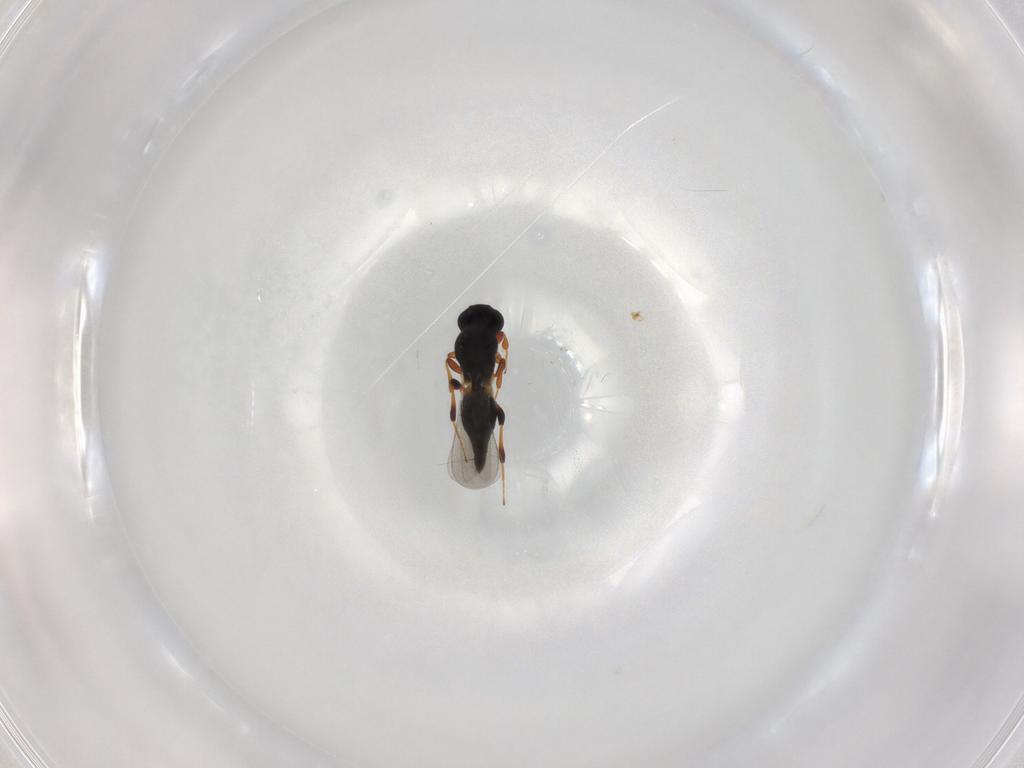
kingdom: Animalia
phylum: Arthropoda
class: Insecta
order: Hymenoptera
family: Platygastridae
